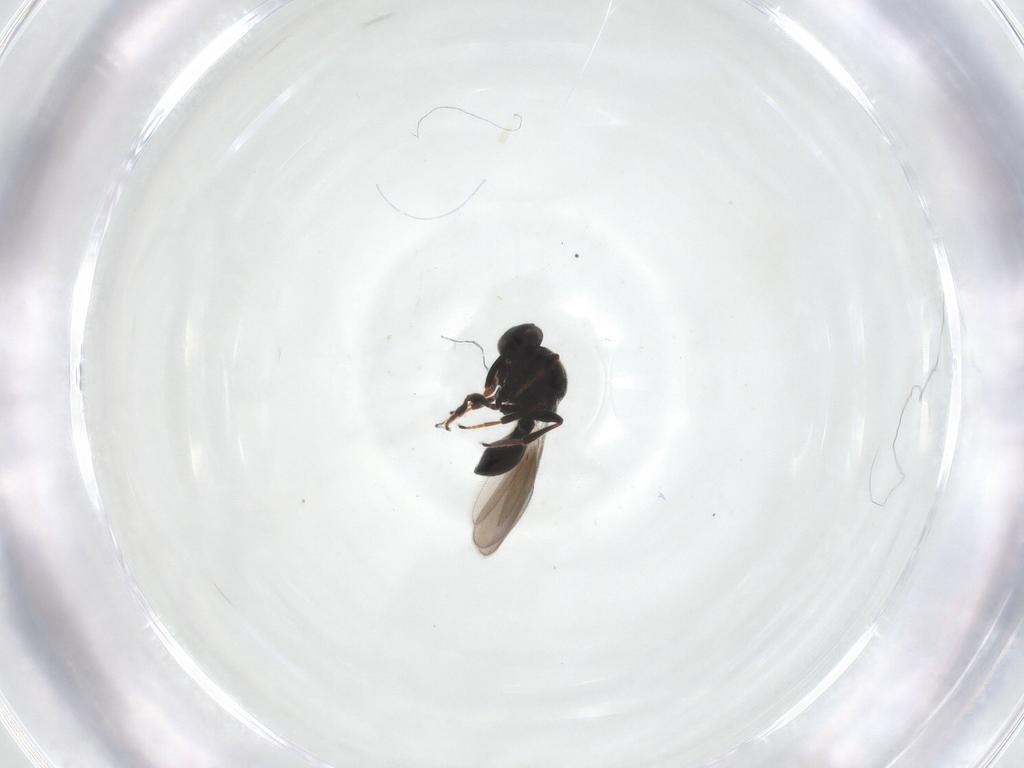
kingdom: Animalia
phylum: Arthropoda
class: Insecta
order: Hymenoptera
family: Platygastridae
